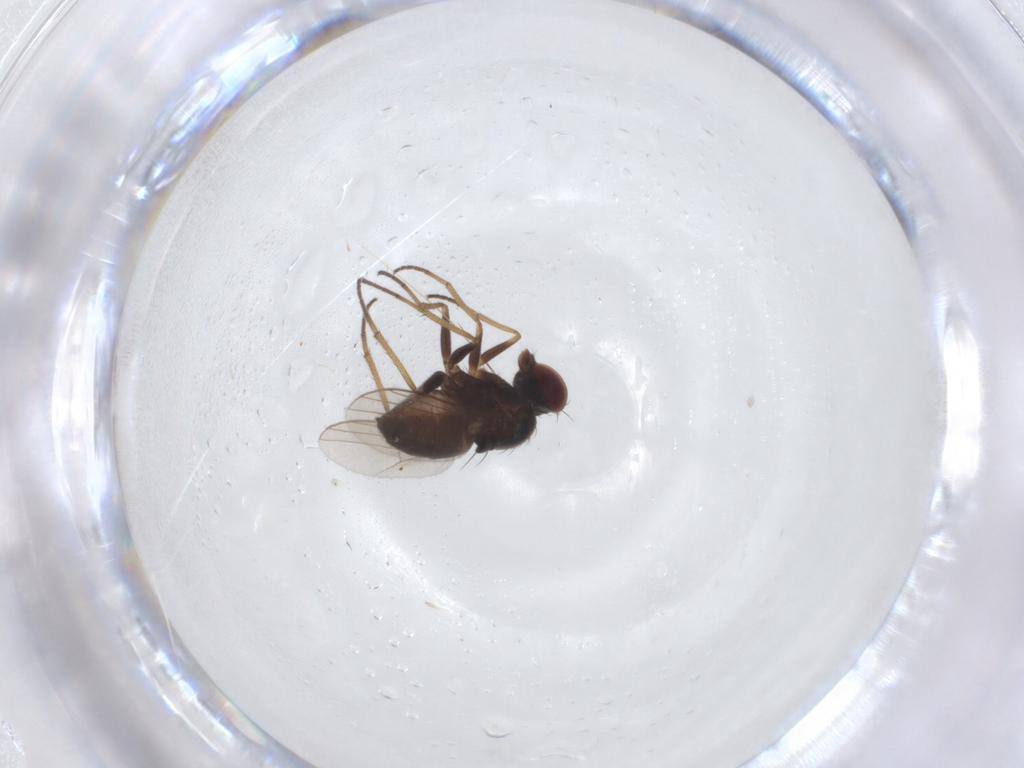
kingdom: Animalia
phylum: Arthropoda
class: Insecta
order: Diptera
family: Dolichopodidae
